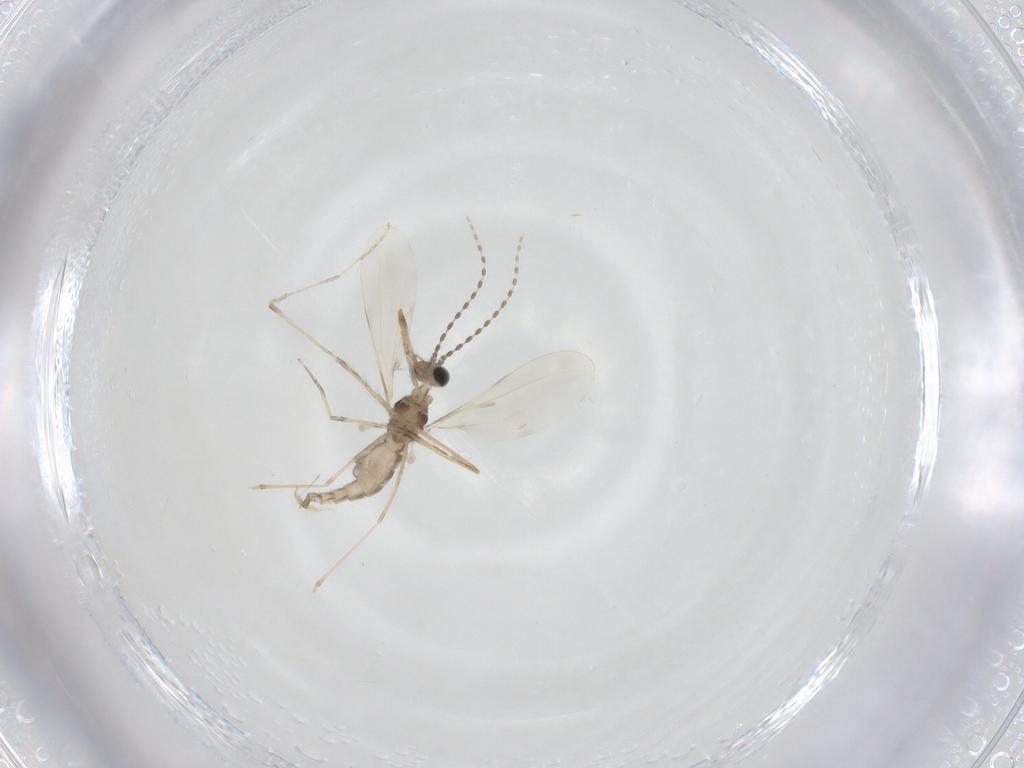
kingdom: Animalia
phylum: Arthropoda
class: Insecta
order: Diptera
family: Cecidomyiidae
